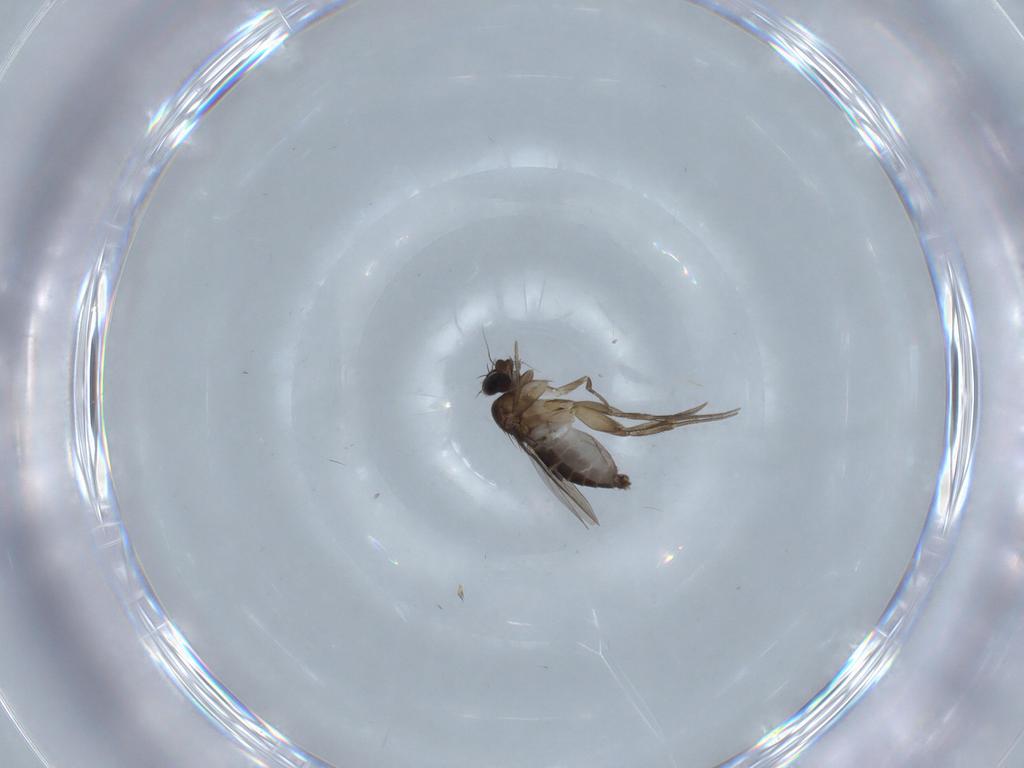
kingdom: Animalia
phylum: Arthropoda
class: Insecta
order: Diptera
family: Phoridae
